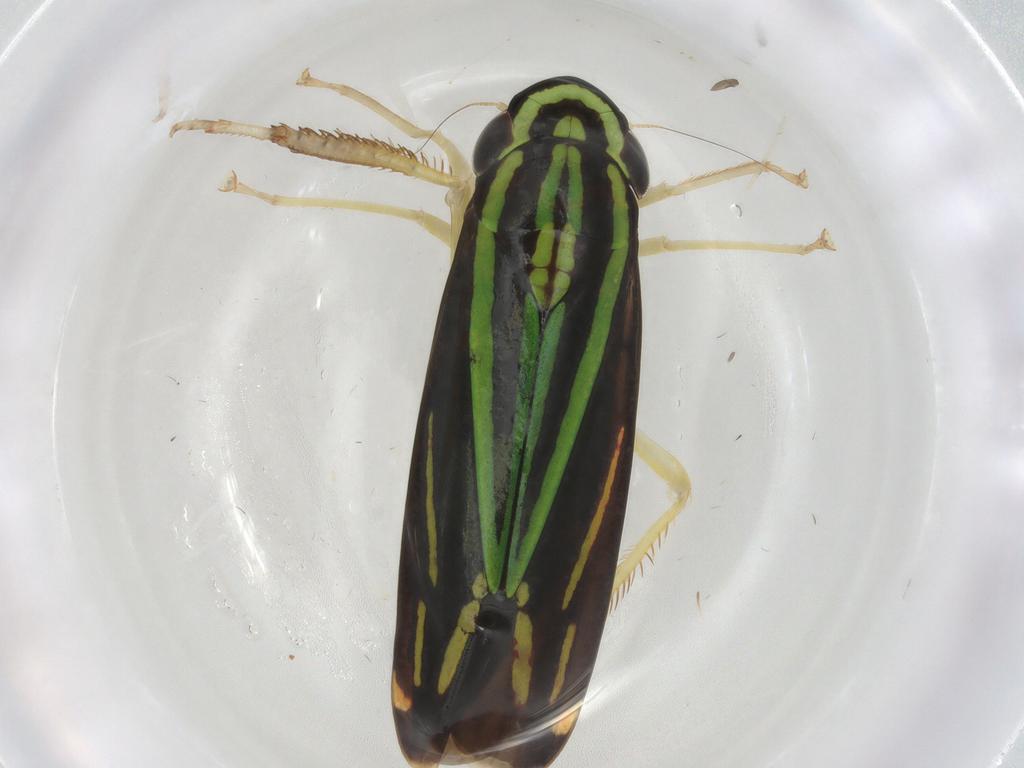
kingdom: Animalia
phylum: Arthropoda
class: Insecta
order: Hemiptera
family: Cicadellidae
